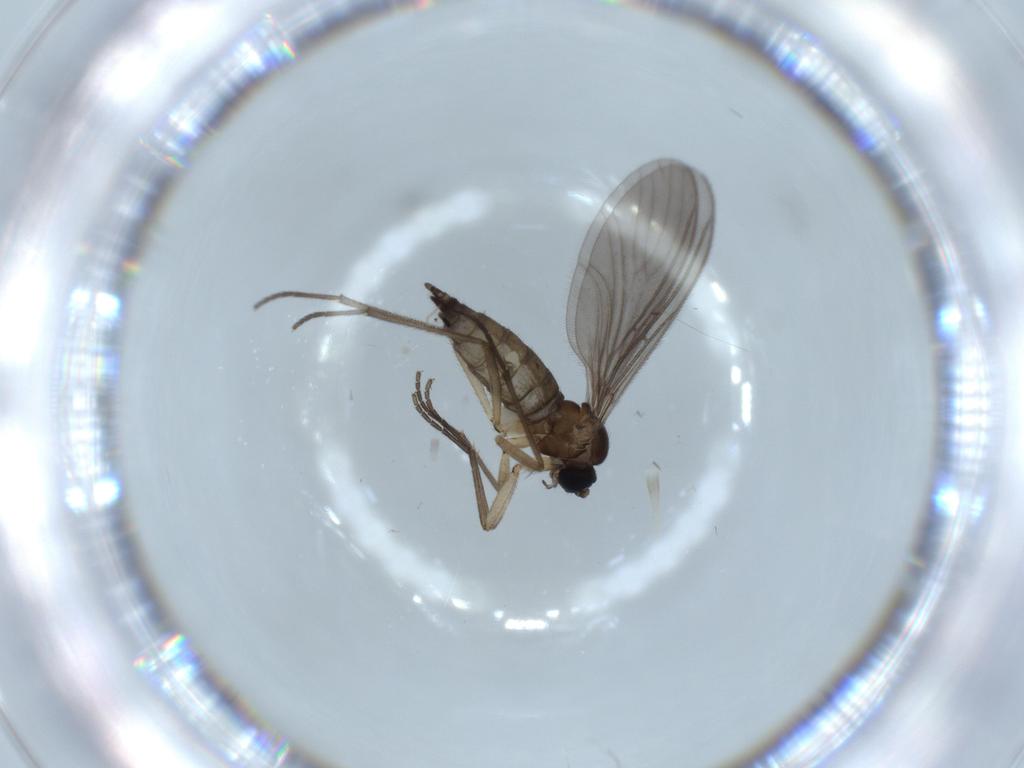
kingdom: Animalia
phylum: Arthropoda
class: Insecta
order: Diptera
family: Sciaridae
